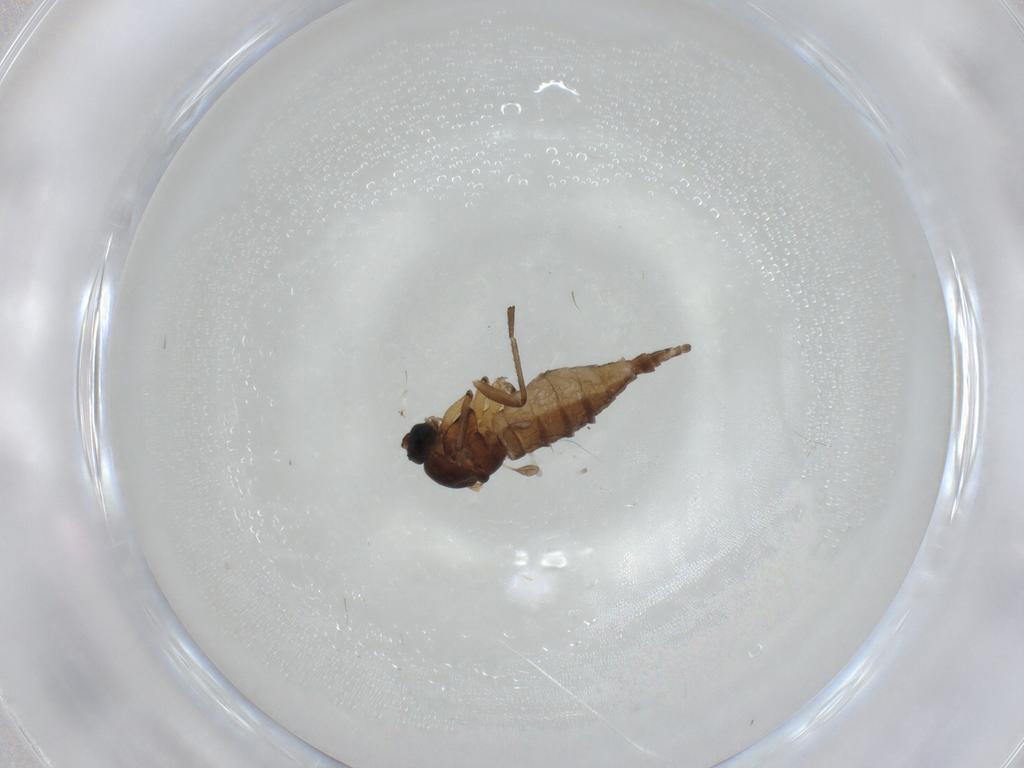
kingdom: Animalia
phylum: Arthropoda
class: Insecta
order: Diptera
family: Sciaridae
